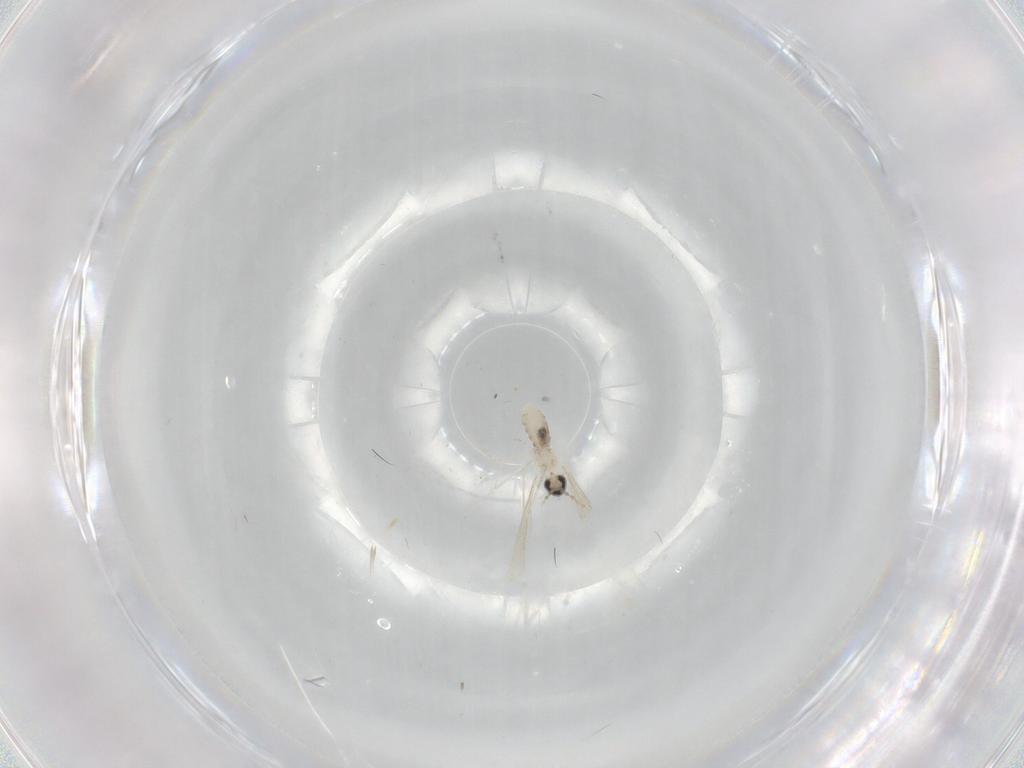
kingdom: Animalia
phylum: Arthropoda
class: Insecta
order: Diptera
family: Cecidomyiidae
